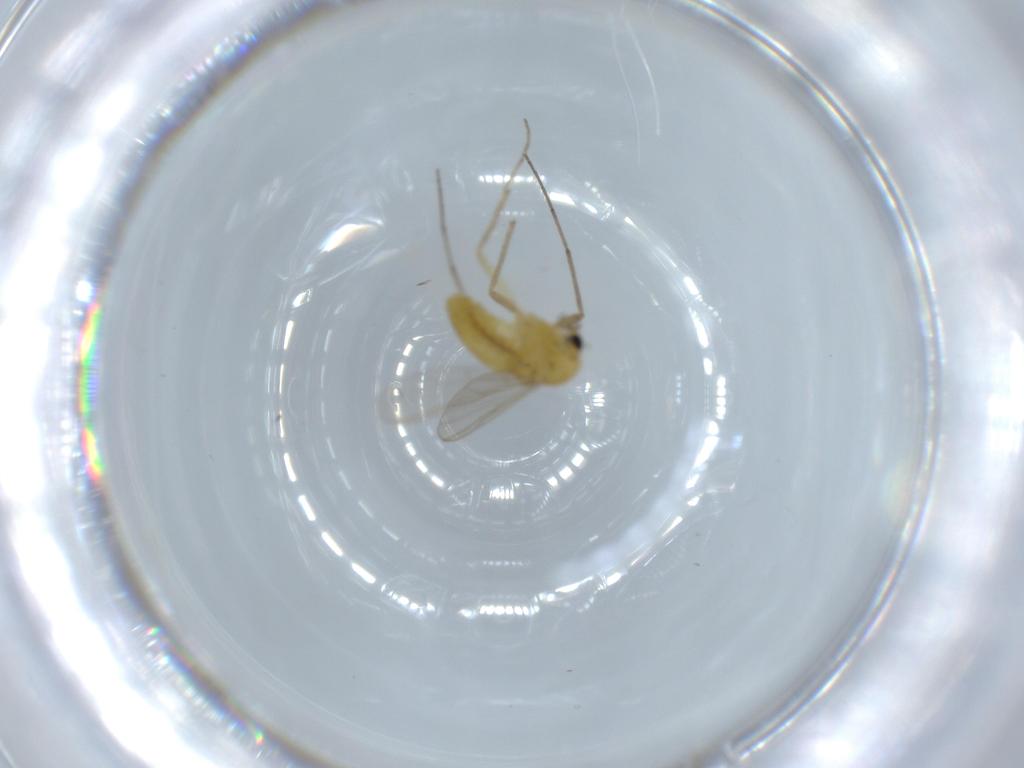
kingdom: Animalia
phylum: Arthropoda
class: Insecta
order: Diptera
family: Chironomidae
